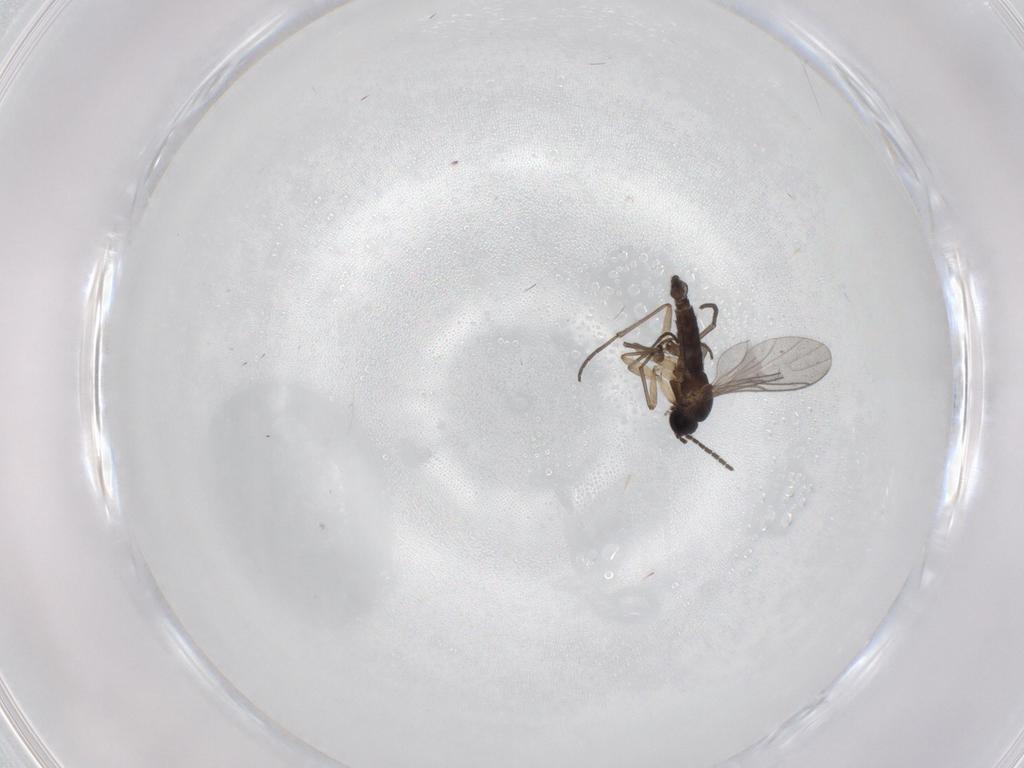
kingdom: Animalia
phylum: Arthropoda
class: Insecta
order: Diptera
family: Sciaridae
